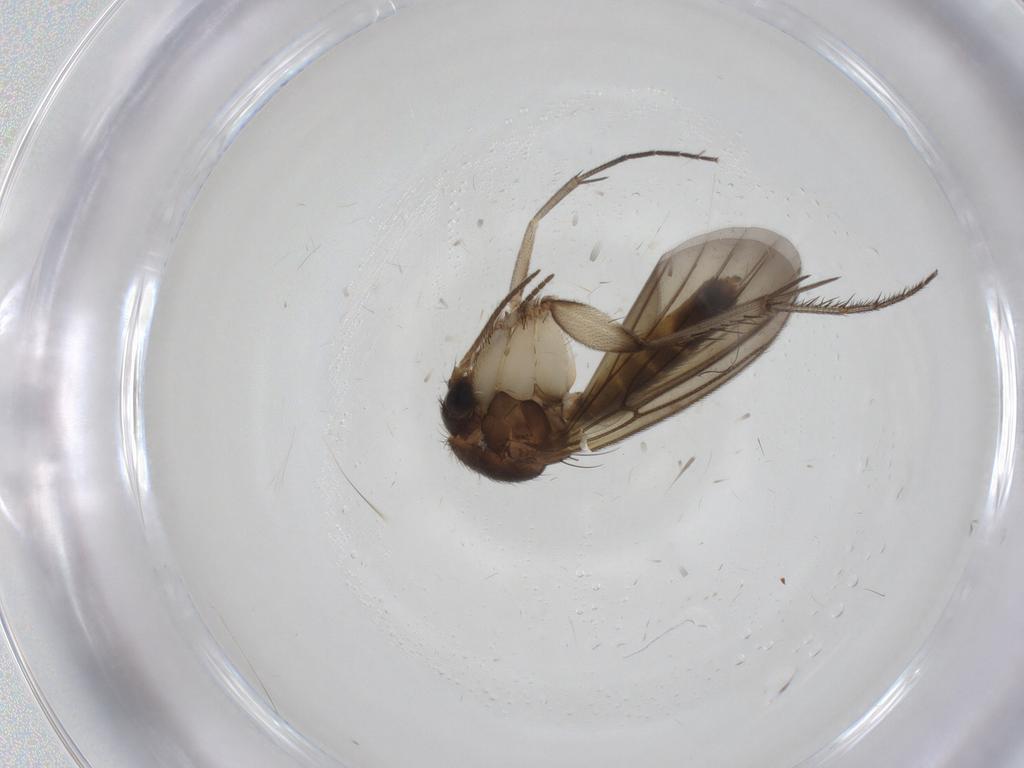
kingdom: Animalia
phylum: Arthropoda
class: Insecta
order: Diptera
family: Mycetophilidae
